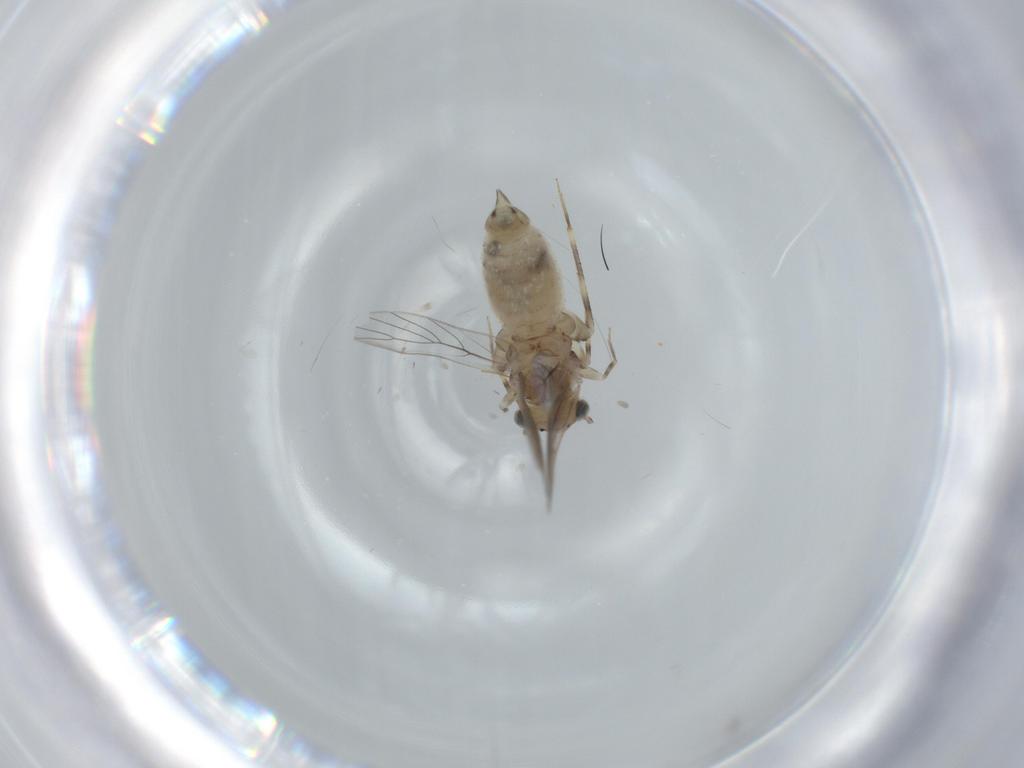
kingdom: Animalia
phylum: Arthropoda
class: Insecta
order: Psocodea
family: Lepidopsocidae
